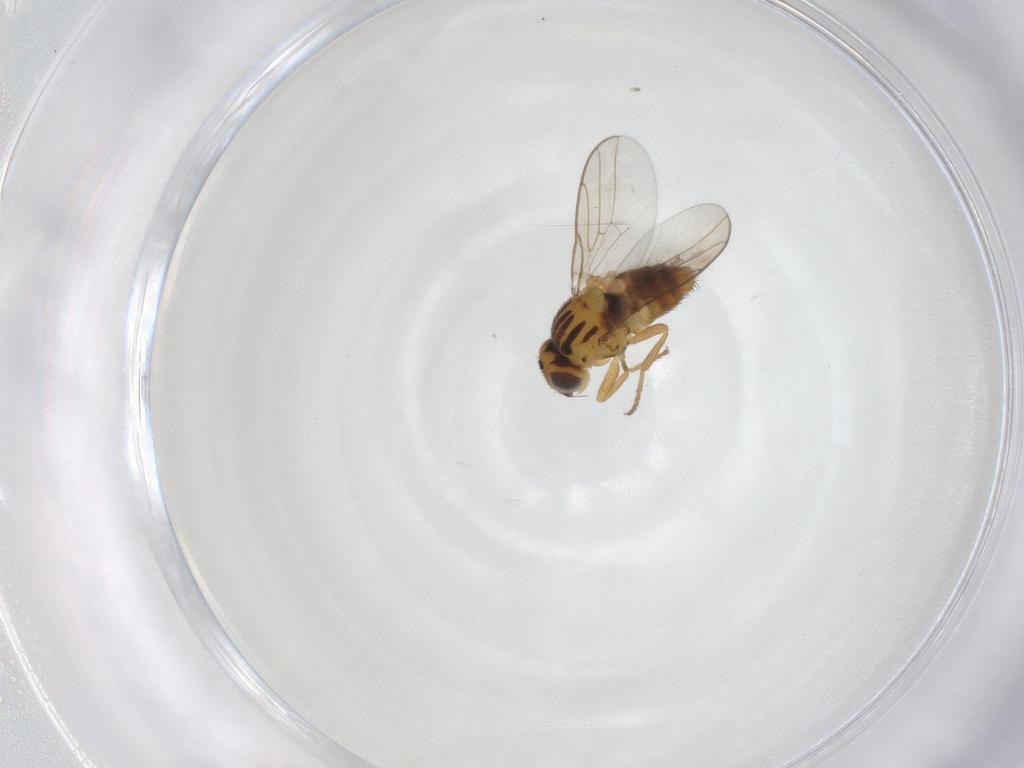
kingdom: Animalia
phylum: Arthropoda
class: Insecta
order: Diptera
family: Chloropidae
